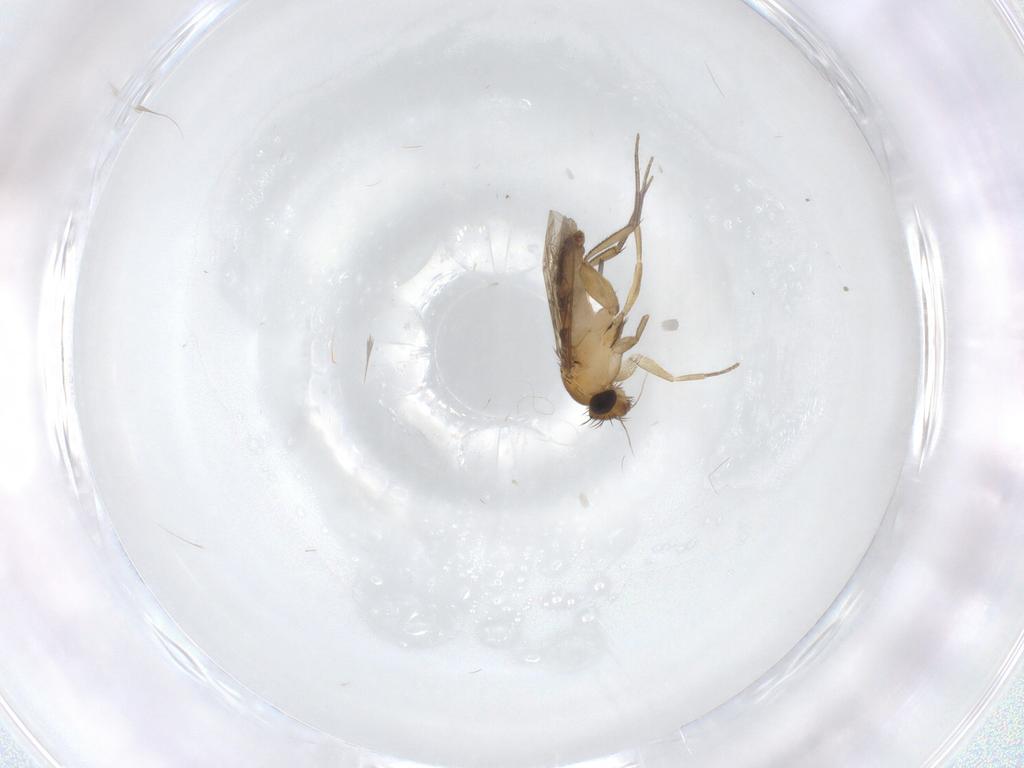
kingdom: Animalia
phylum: Arthropoda
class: Insecta
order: Diptera
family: Phoridae
